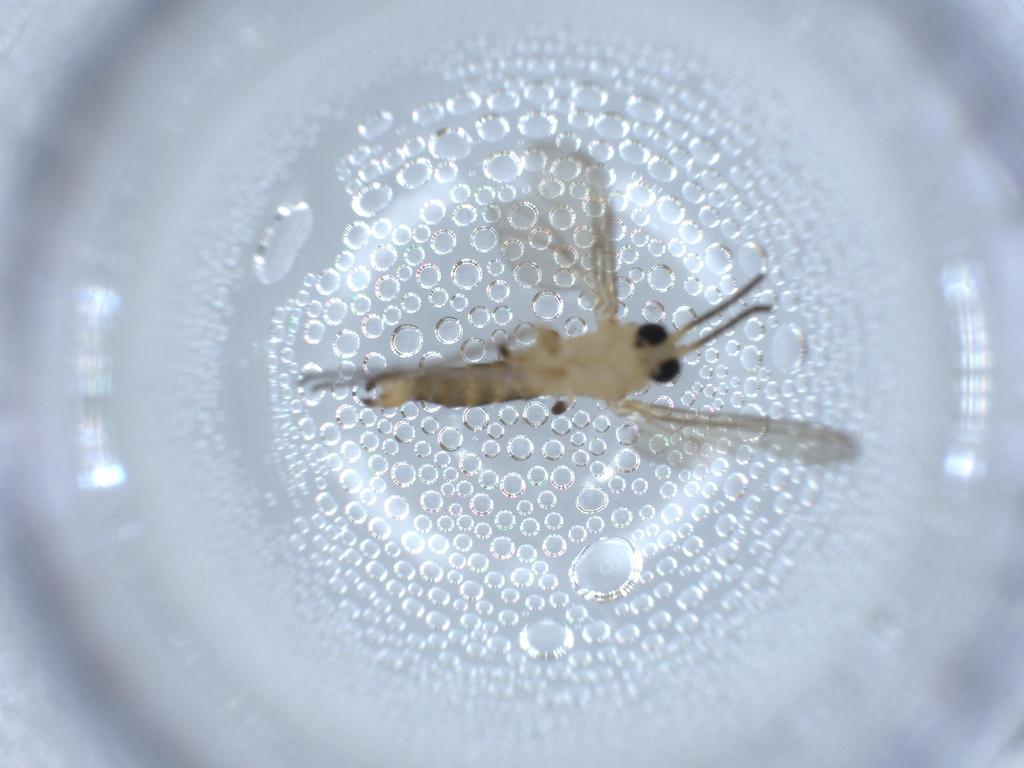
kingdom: Animalia
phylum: Arthropoda
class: Insecta
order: Diptera
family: Sciaridae
